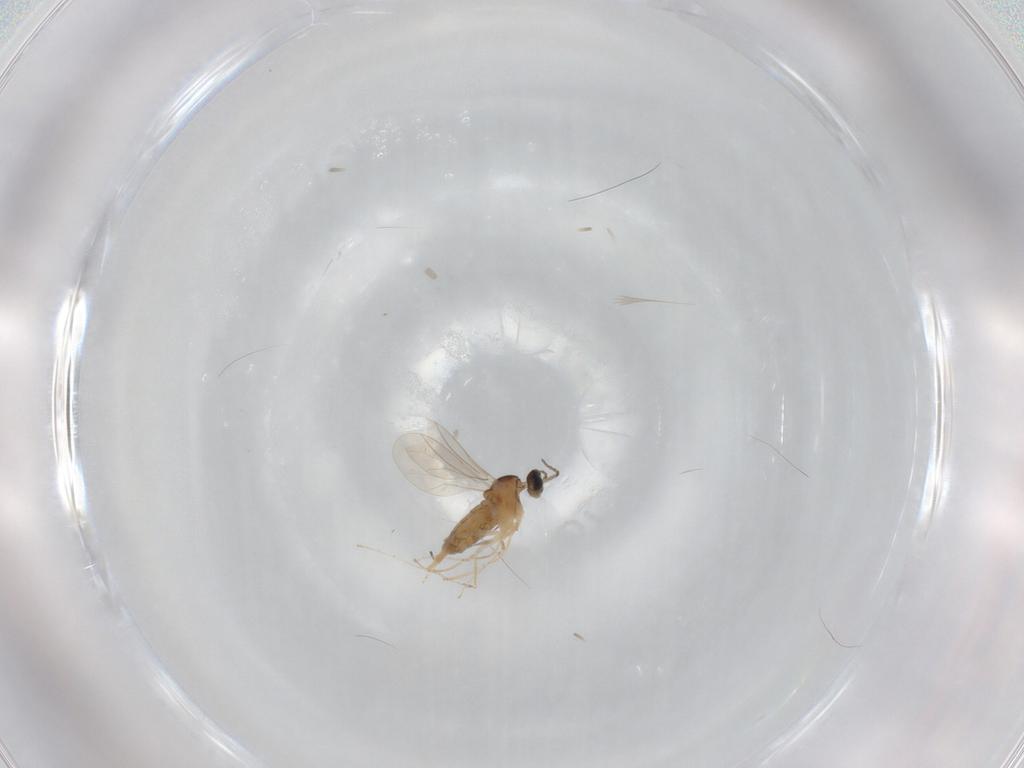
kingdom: Animalia
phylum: Arthropoda
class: Insecta
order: Diptera
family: Cecidomyiidae
